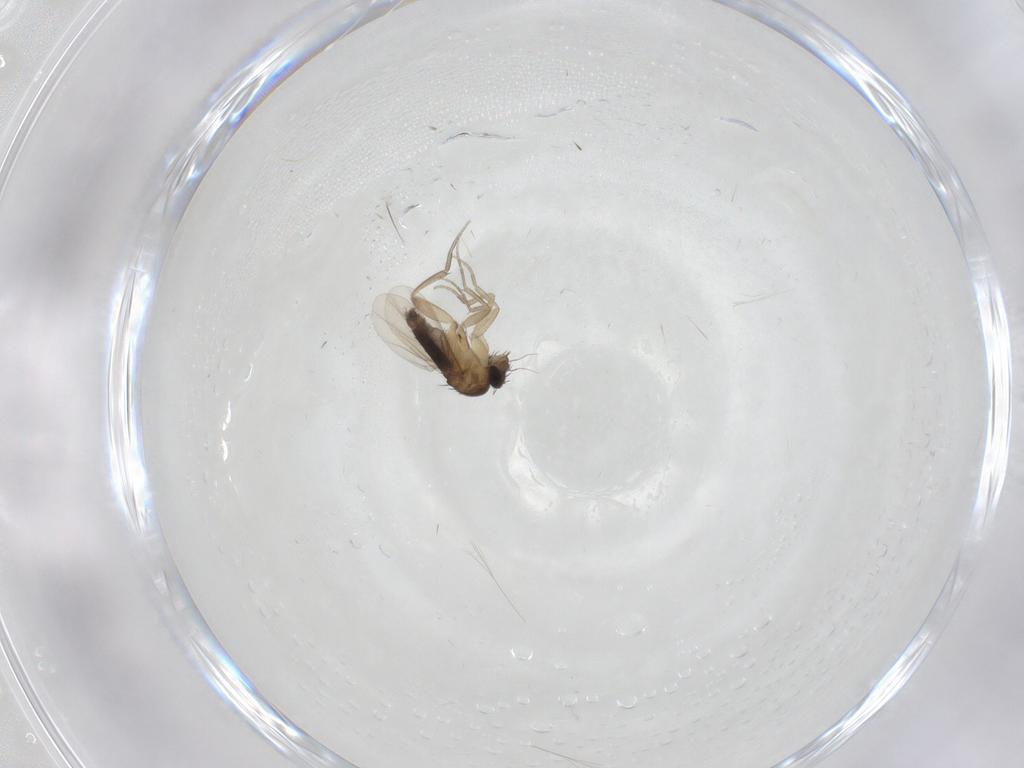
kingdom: Animalia
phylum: Arthropoda
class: Insecta
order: Diptera
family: Phoridae
